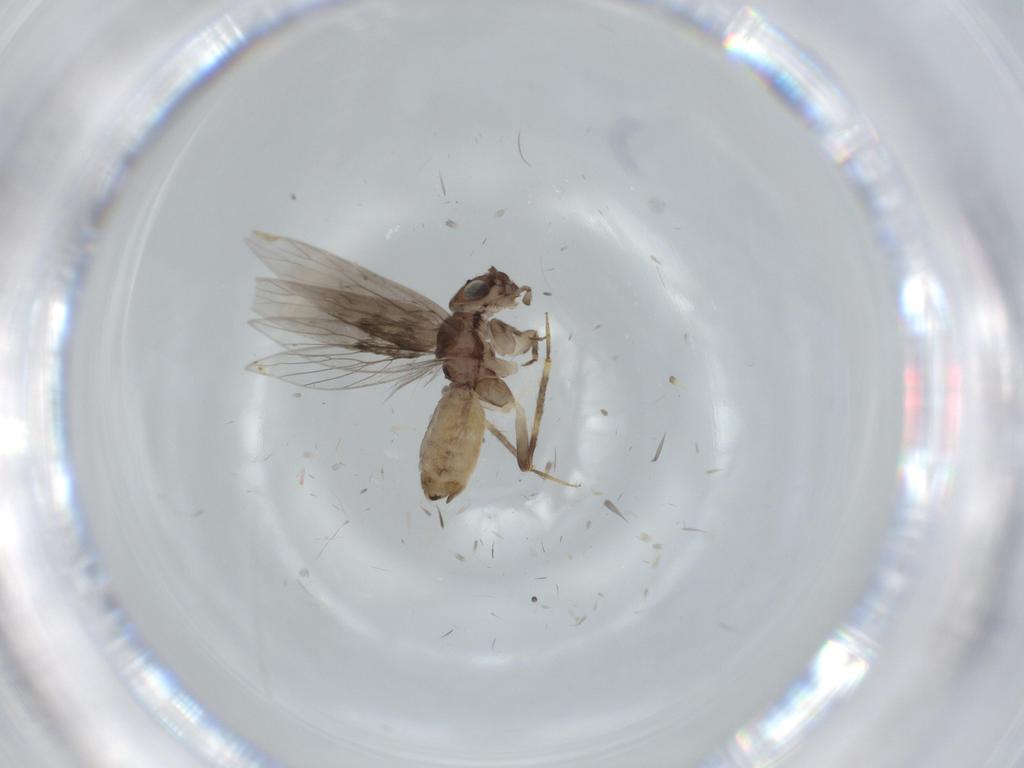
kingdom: Animalia
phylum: Arthropoda
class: Insecta
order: Psocodea
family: Lepidopsocidae
